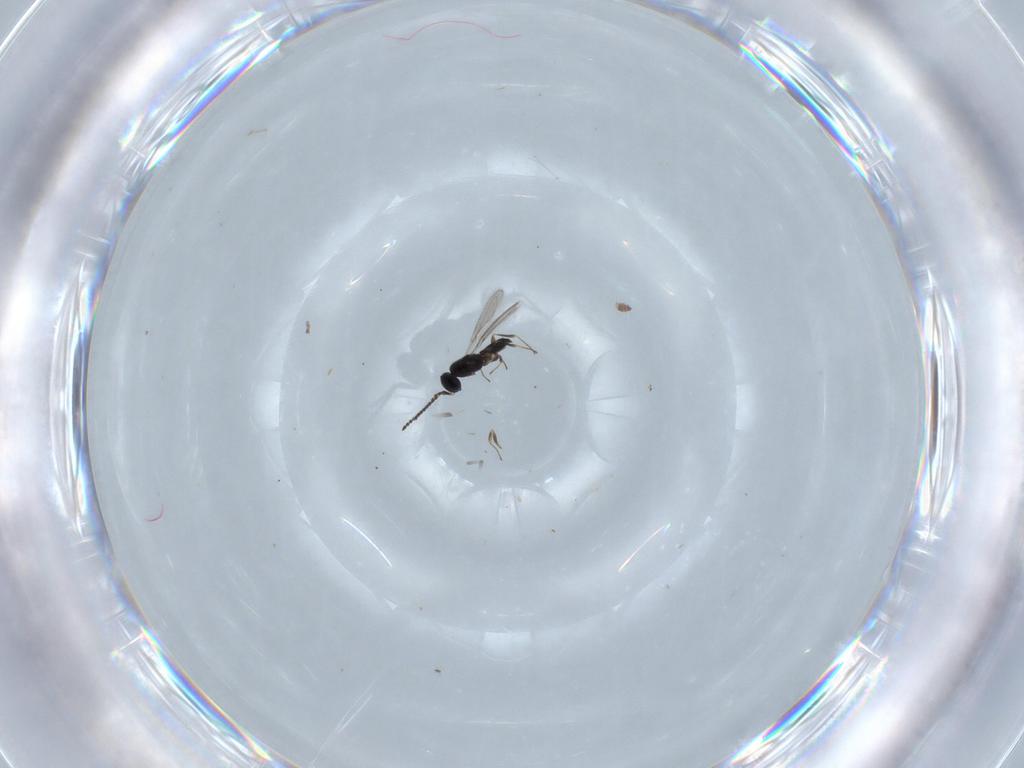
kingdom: Animalia
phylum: Arthropoda
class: Insecta
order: Hymenoptera
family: Scelionidae
